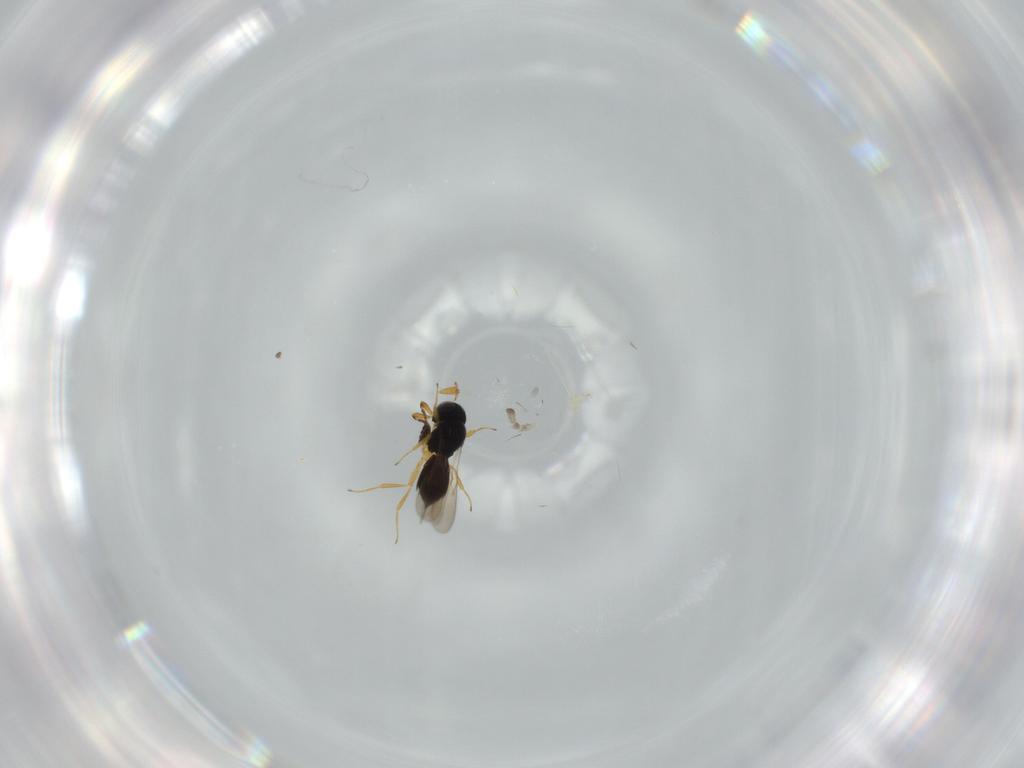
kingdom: Animalia
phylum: Arthropoda
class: Insecta
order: Hymenoptera
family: Scelionidae
